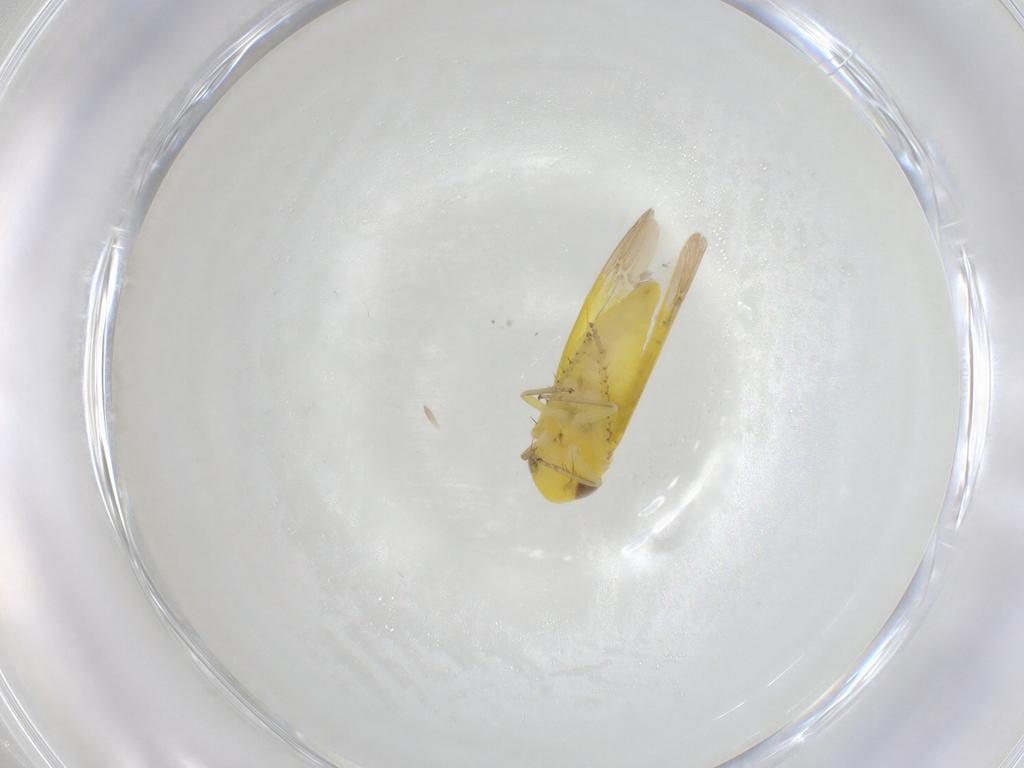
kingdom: Animalia
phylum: Arthropoda
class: Insecta
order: Hemiptera
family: Cicadellidae
